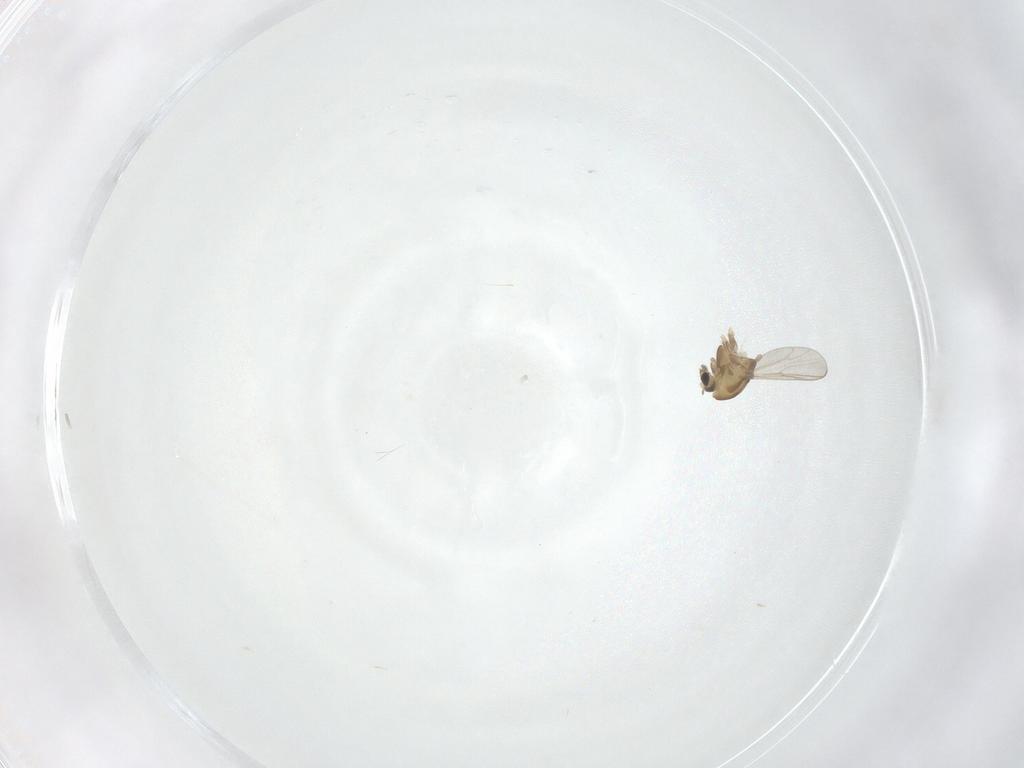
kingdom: Animalia
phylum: Arthropoda
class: Insecta
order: Diptera
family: Chironomidae
